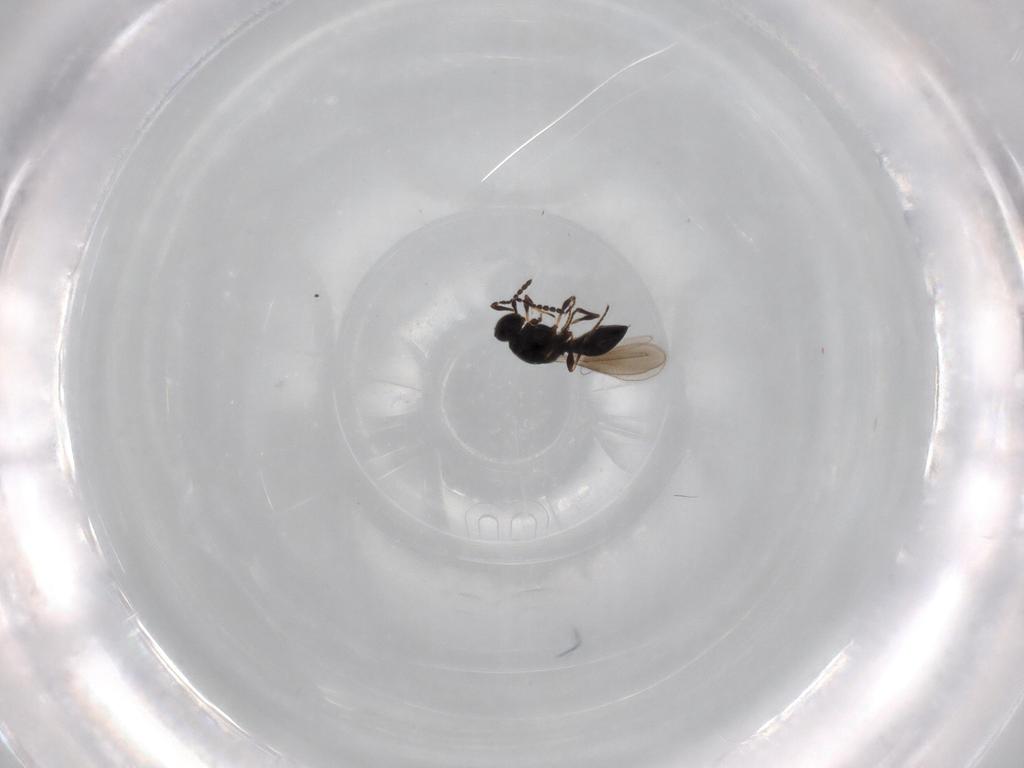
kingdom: Animalia
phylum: Arthropoda
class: Insecta
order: Hymenoptera
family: Platygastridae
